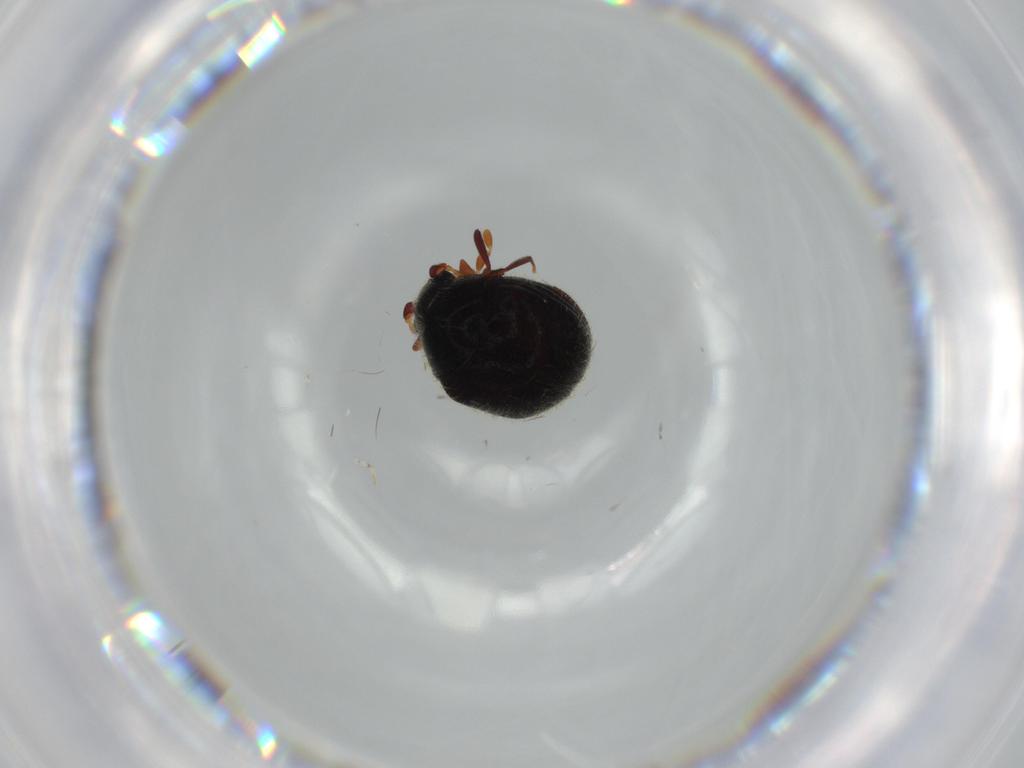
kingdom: Animalia
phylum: Arthropoda
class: Insecta
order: Coleoptera
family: Ptinidae
